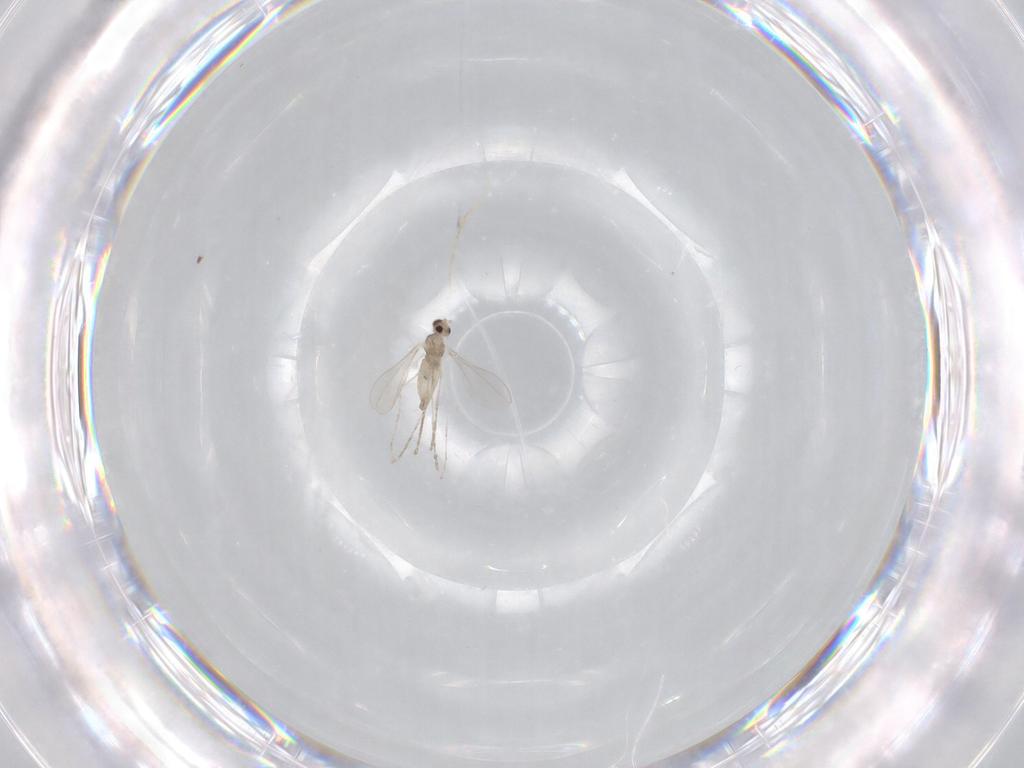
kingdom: Animalia
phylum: Arthropoda
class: Insecta
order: Diptera
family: Cecidomyiidae
